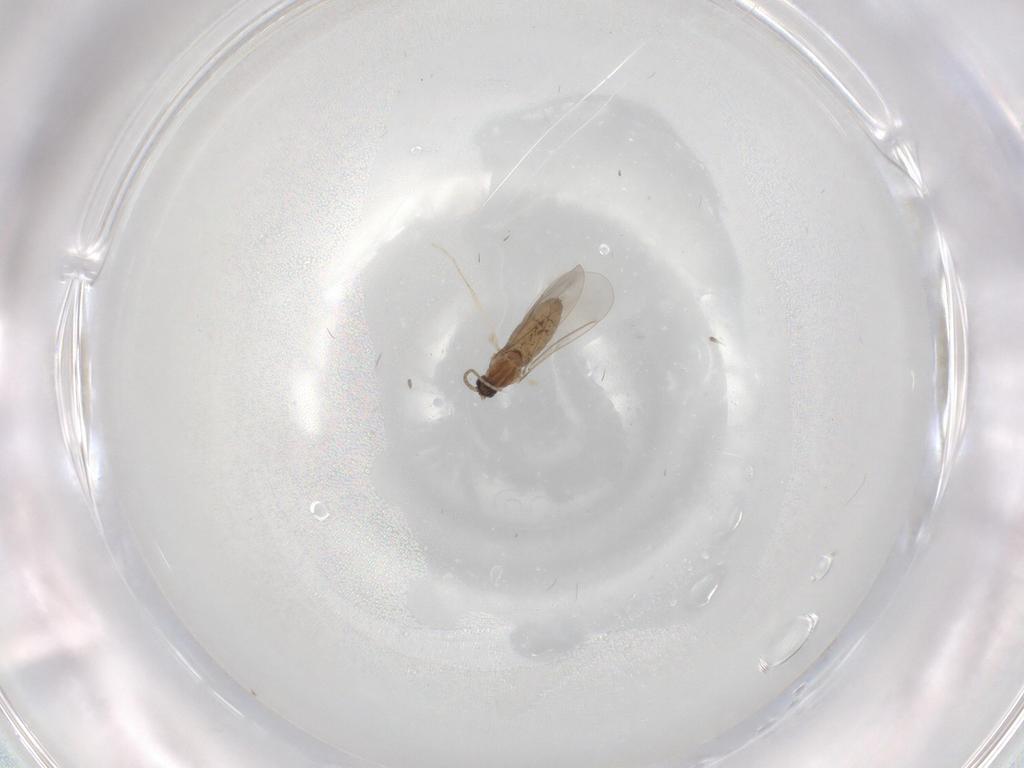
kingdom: Animalia
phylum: Arthropoda
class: Insecta
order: Diptera
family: Cecidomyiidae
